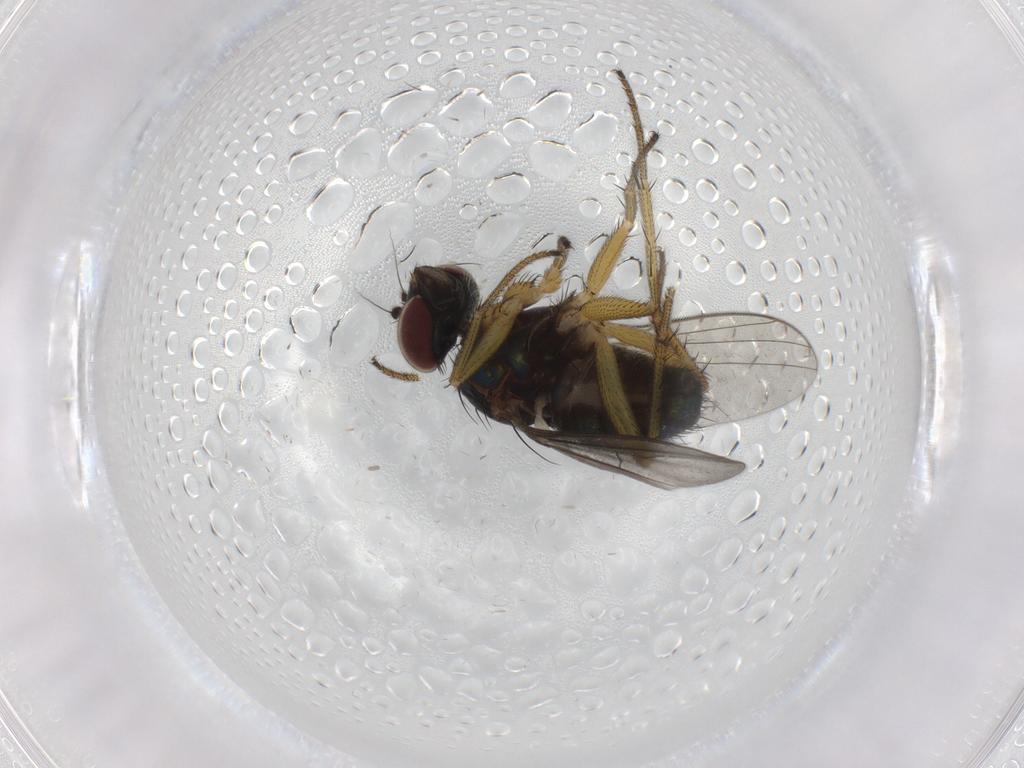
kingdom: Animalia
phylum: Arthropoda
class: Insecta
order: Diptera
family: Dolichopodidae
